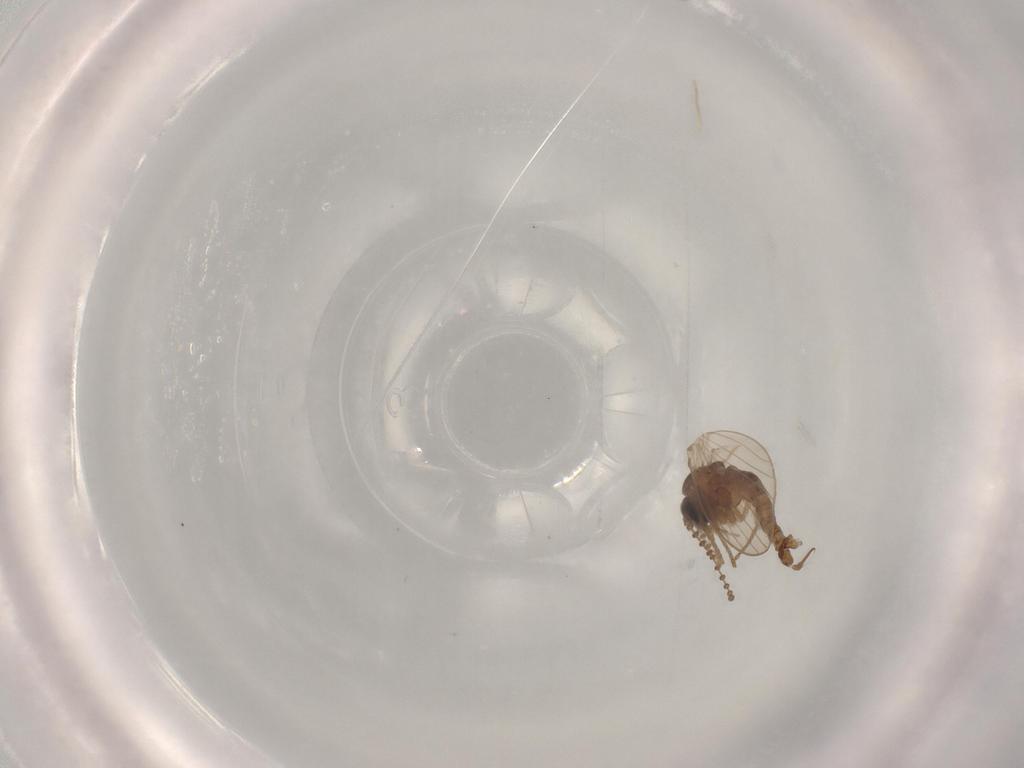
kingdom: Animalia
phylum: Arthropoda
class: Insecta
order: Diptera
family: Psychodidae
